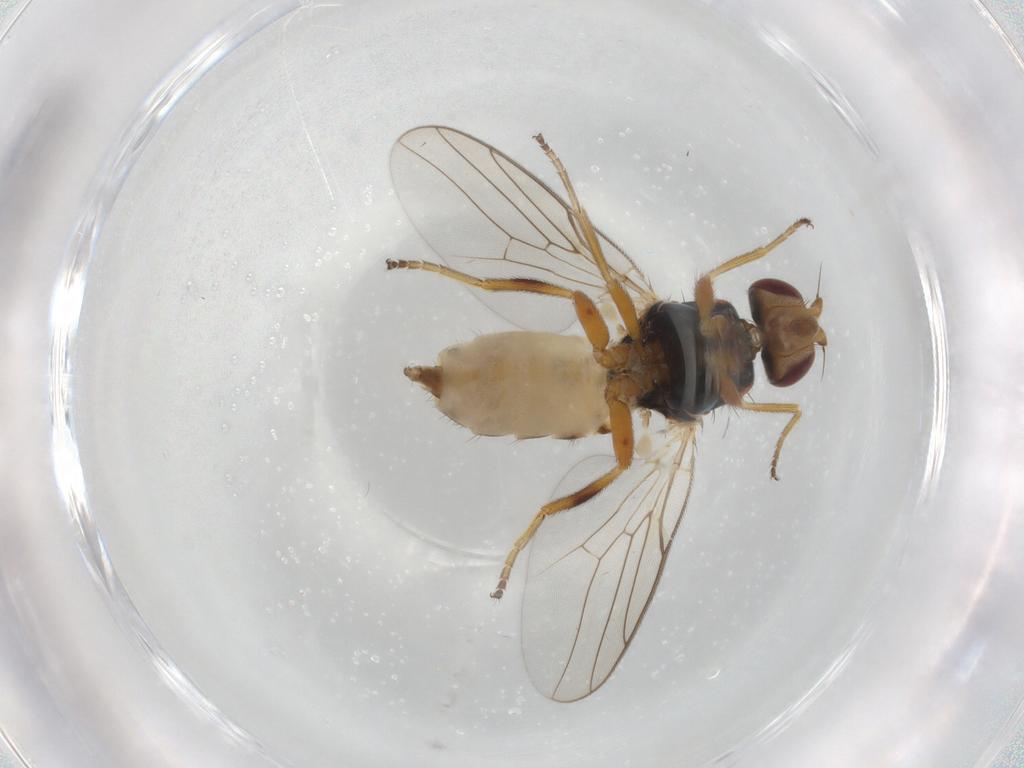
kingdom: Animalia
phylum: Arthropoda
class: Insecta
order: Diptera
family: Chloropidae
